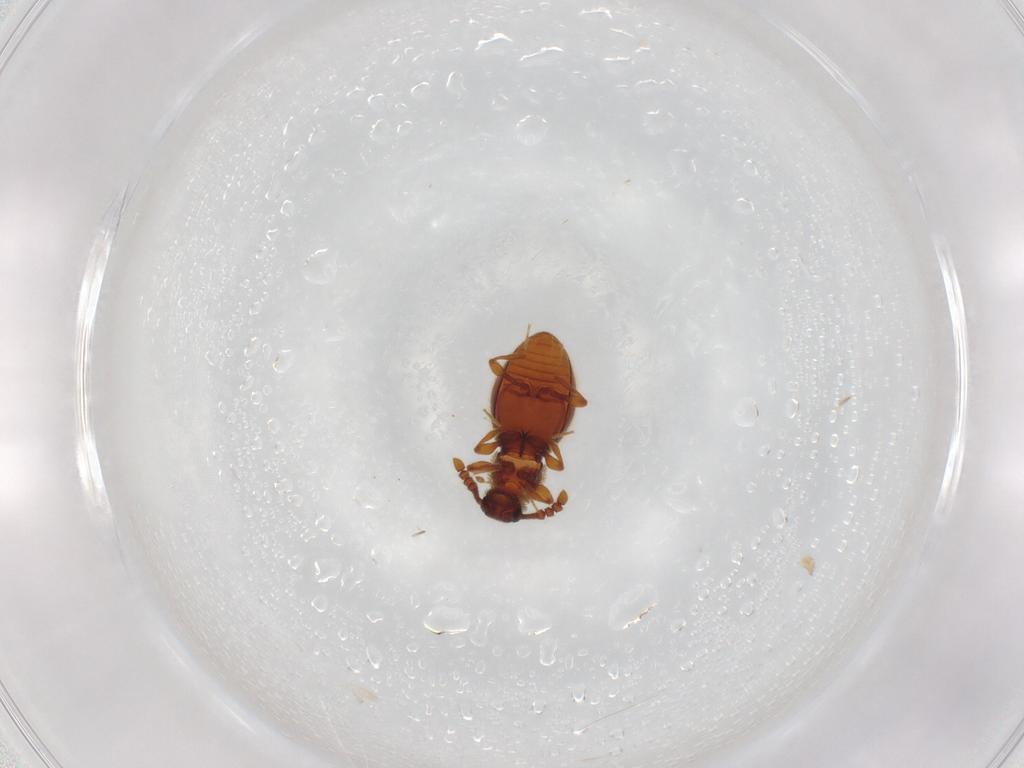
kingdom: Animalia
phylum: Arthropoda
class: Insecta
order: Coleoptera
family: Staphylinidae
